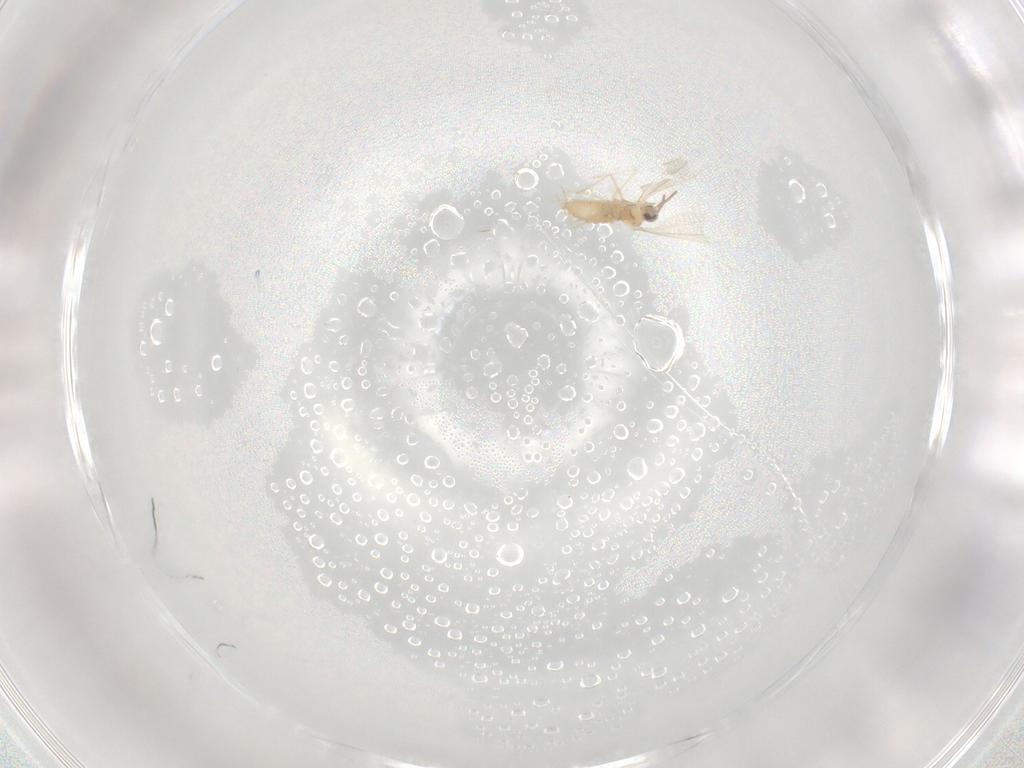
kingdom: Animalia
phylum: Arthropoda
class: Insecta
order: Diptera
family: Cecidomyiidae
